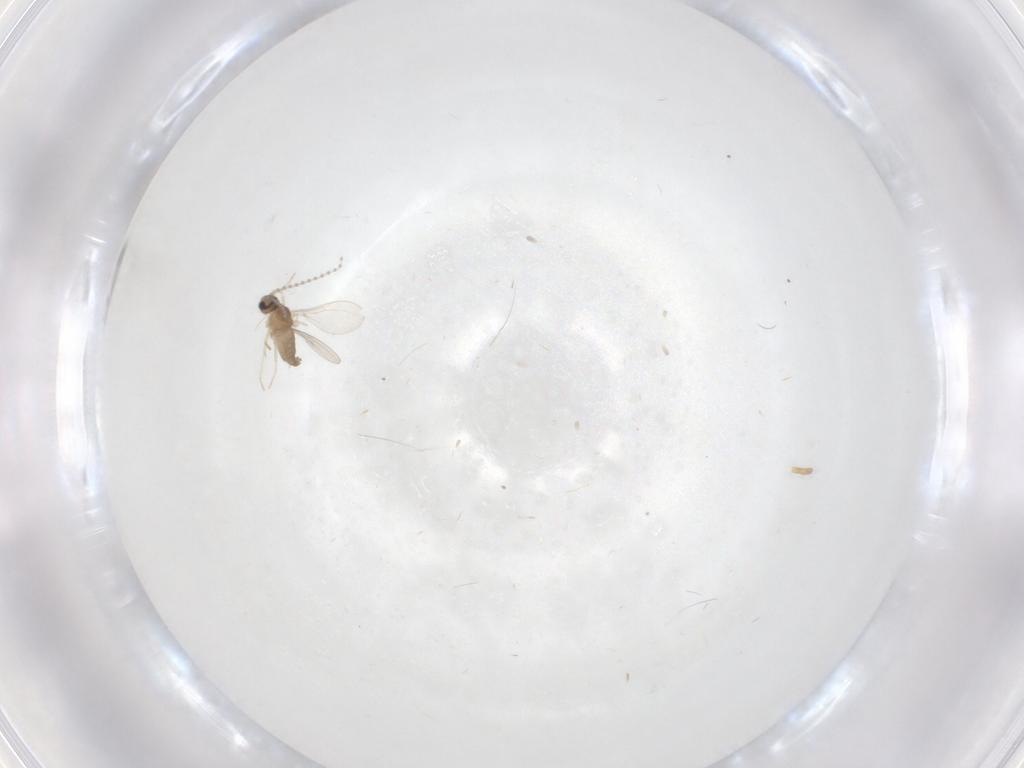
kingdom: Animalia
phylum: Arthropoda
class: Insecta
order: Diptera
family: Cecidomyiidae
